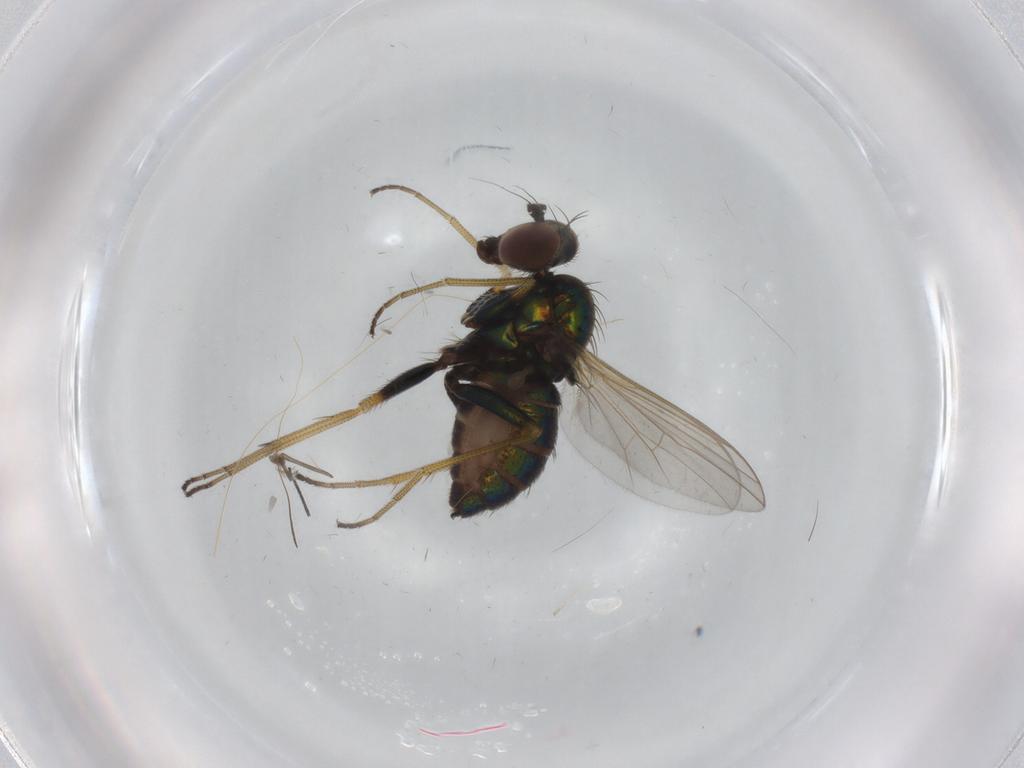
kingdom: Animalia
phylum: Arthropoda
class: Insecta
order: Diptera
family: Dolichopodidae
